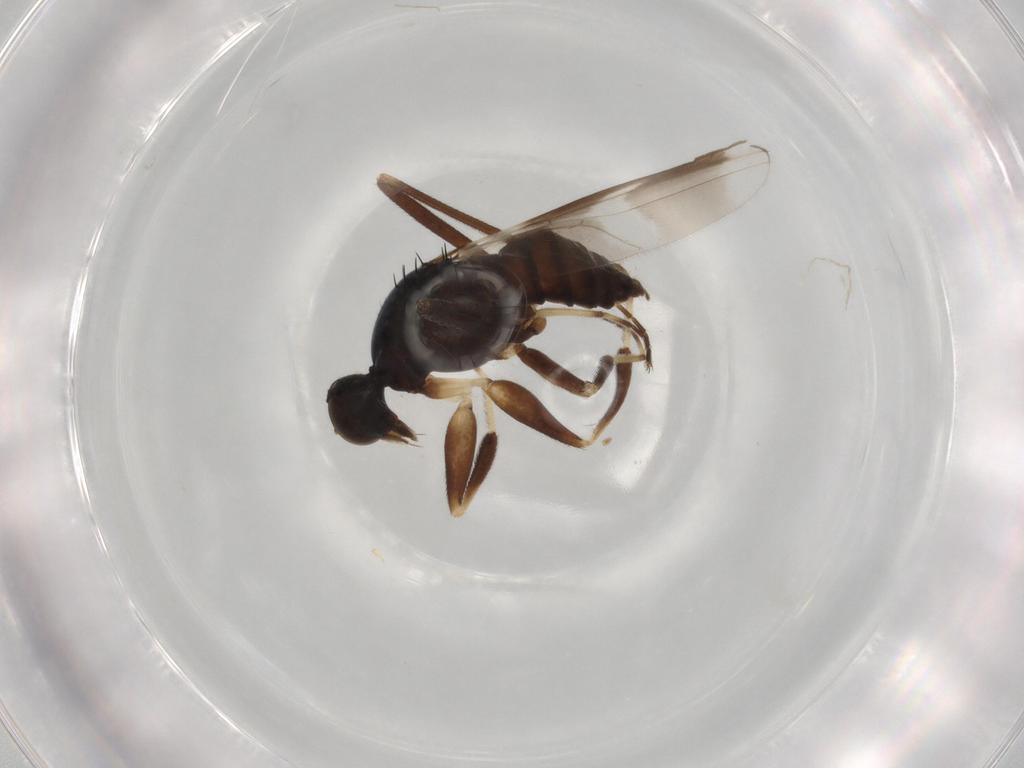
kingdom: Animalia
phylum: Arthropoda
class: Insecta
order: Diptera
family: Hybotidae
